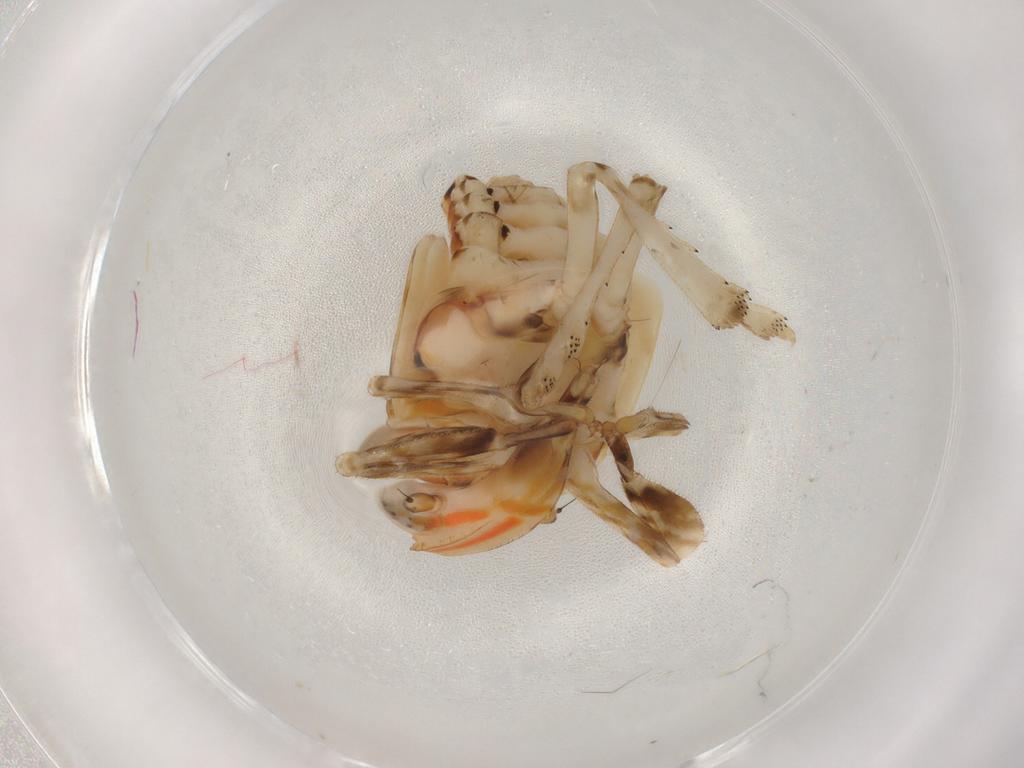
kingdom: Animalia
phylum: Arthropoda
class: Insecta
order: Hemiptera
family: Lophopidae
